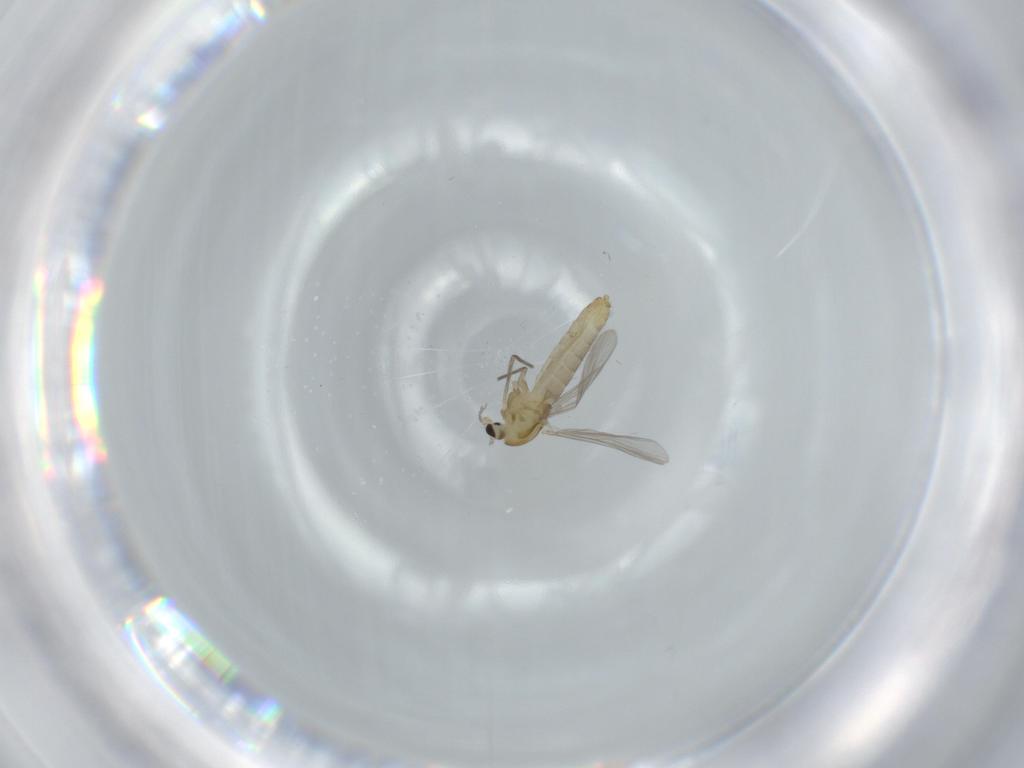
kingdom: Animalia
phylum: Arthropoda
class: Insecta
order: Diptera
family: Chironomidae
